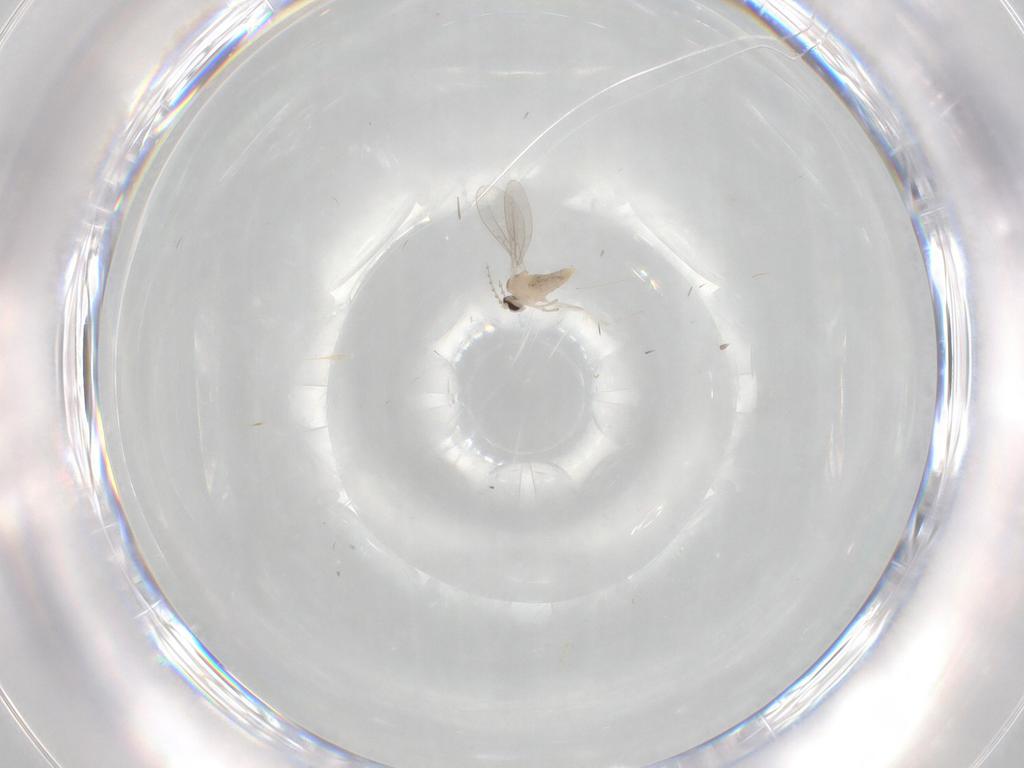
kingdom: Animalia
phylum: Arthropoda
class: Insecta
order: Diptera
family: Cecidomyiidae
